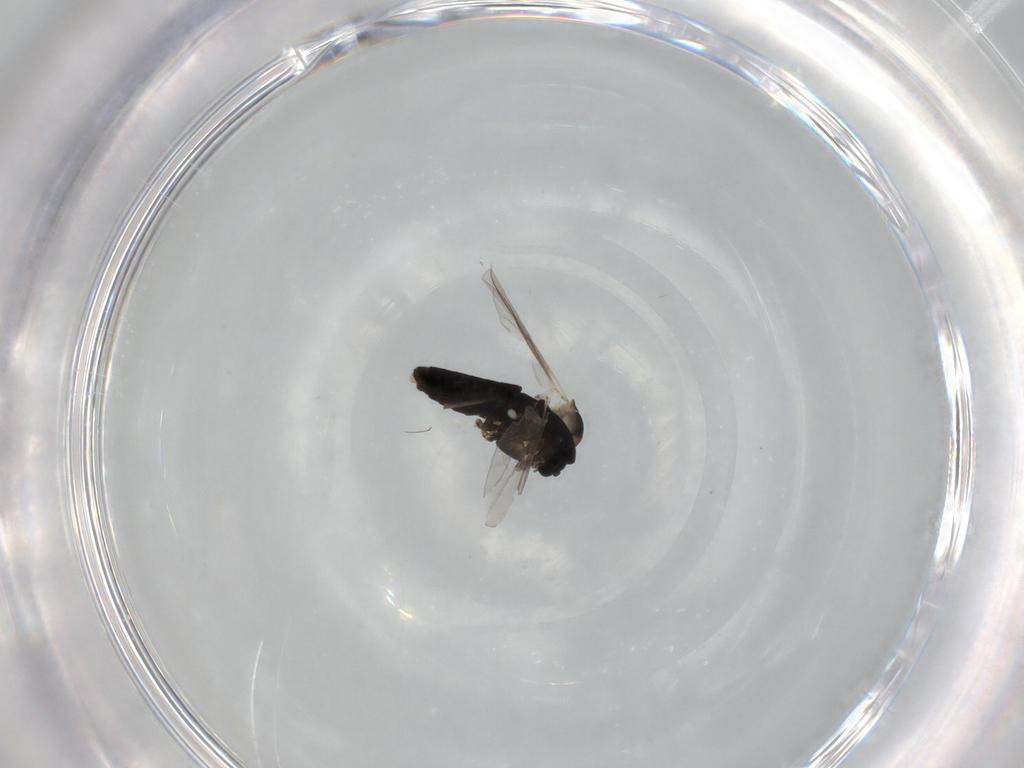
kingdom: Animalia
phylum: Arthropoda
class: Insecta
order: Diptera
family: Chironomidae
